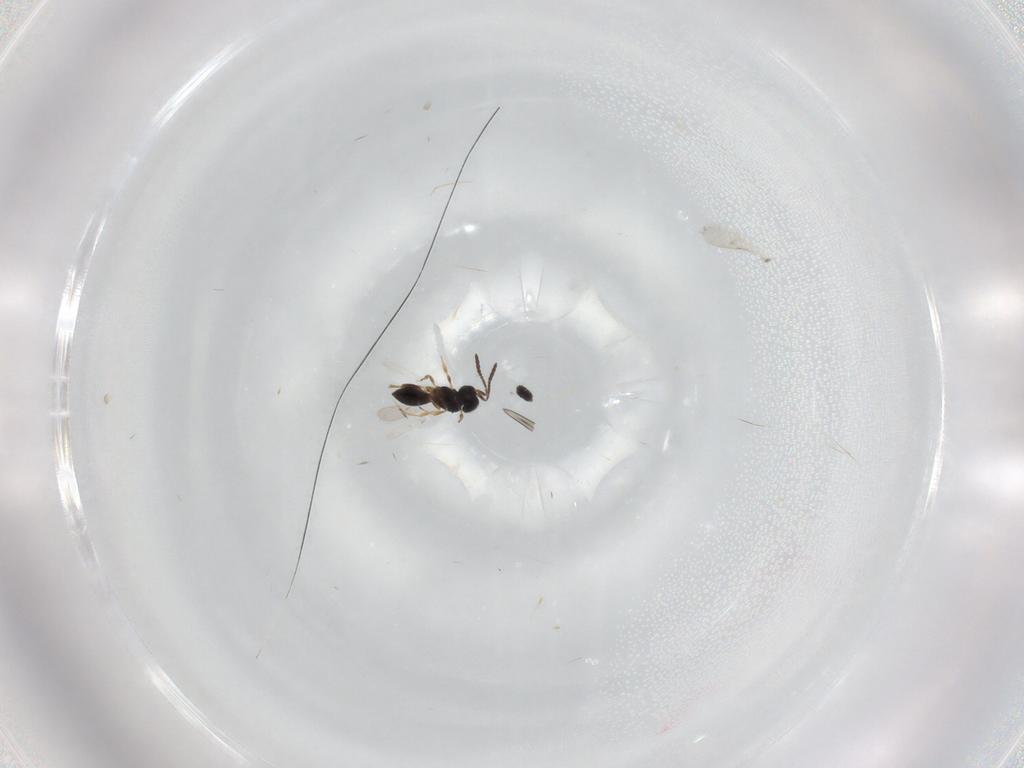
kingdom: Animalia
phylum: Arthropoda
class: Insecta
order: Hymenoptera
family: Scelionidae
